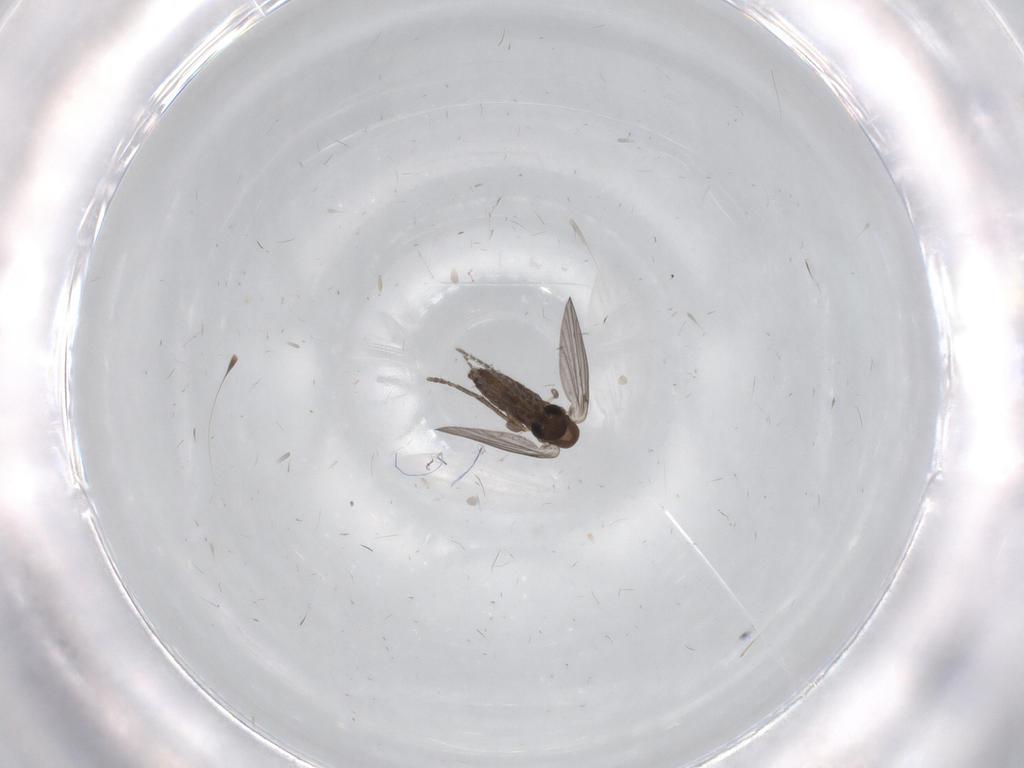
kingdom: Animalia
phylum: Arthropoda
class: Insecta
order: Diptera
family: Psychodidae
